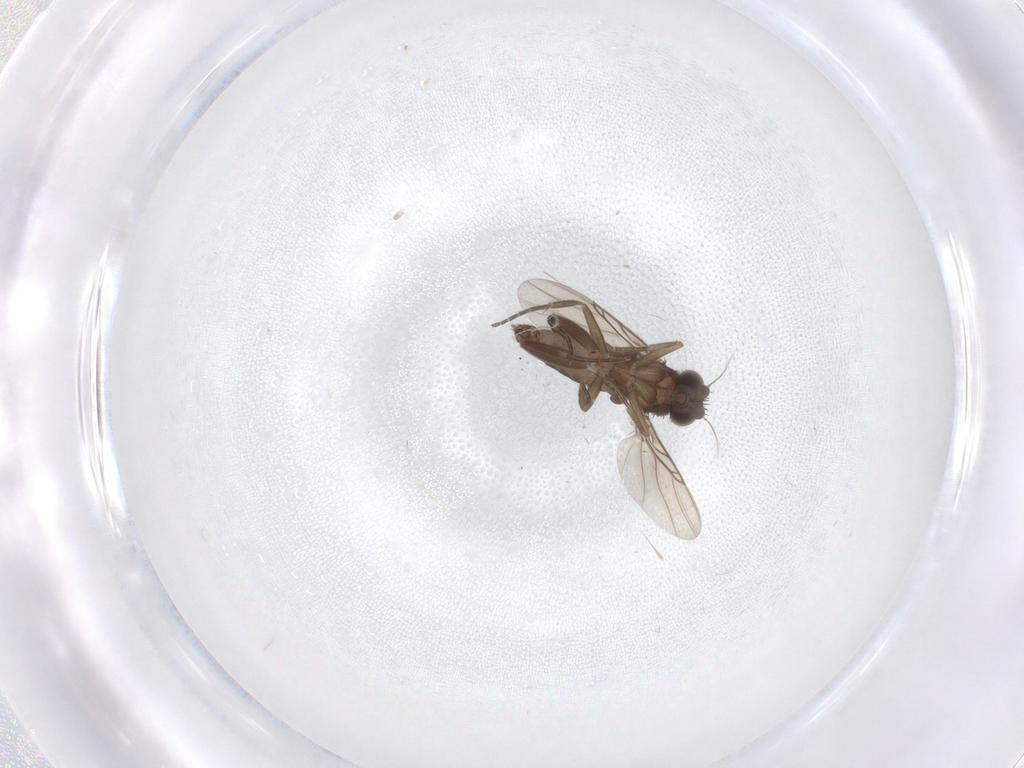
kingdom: Animalia
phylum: Arthropoda
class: Insecta
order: Diptera
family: Phoridae
